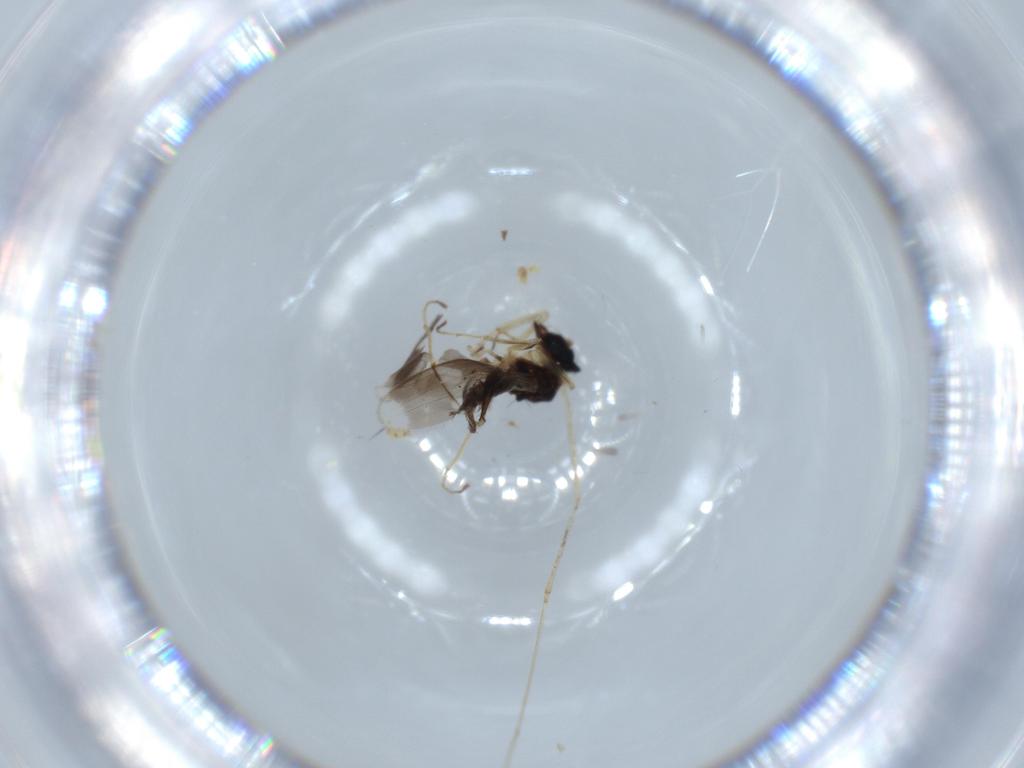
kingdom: Animalia
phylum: Arthropoda
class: Insecta
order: Diptera
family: Hybotidae
